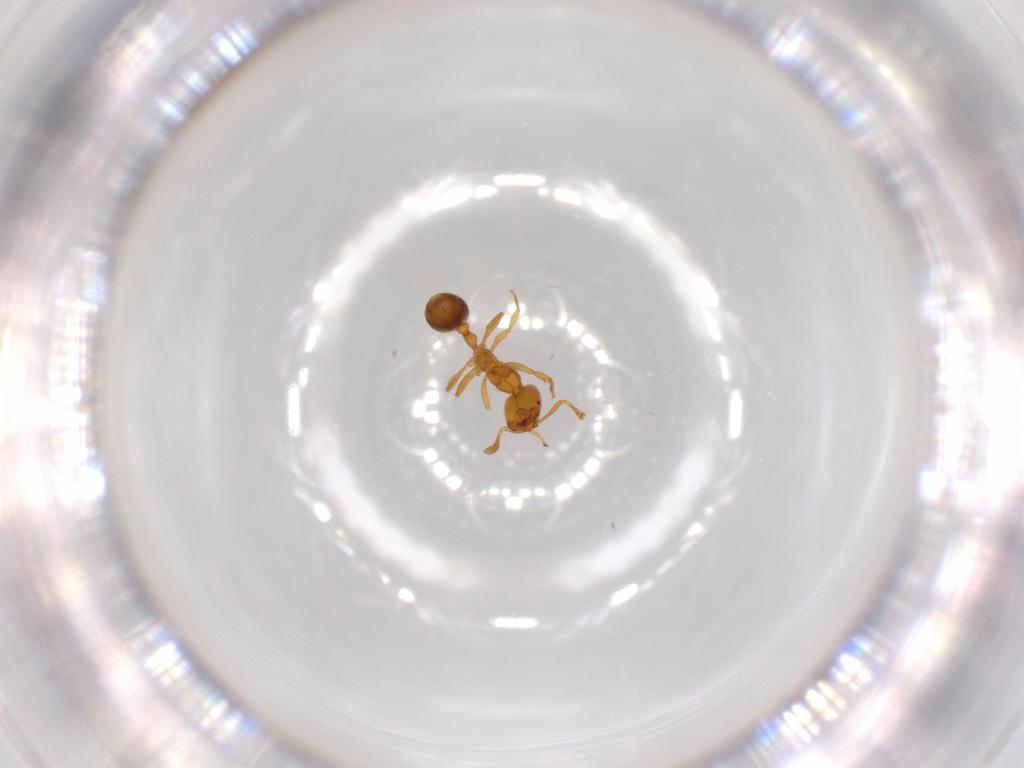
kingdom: Animalia
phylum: Arthropoda
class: Insecta
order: Hymenoptera
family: Formicidae
